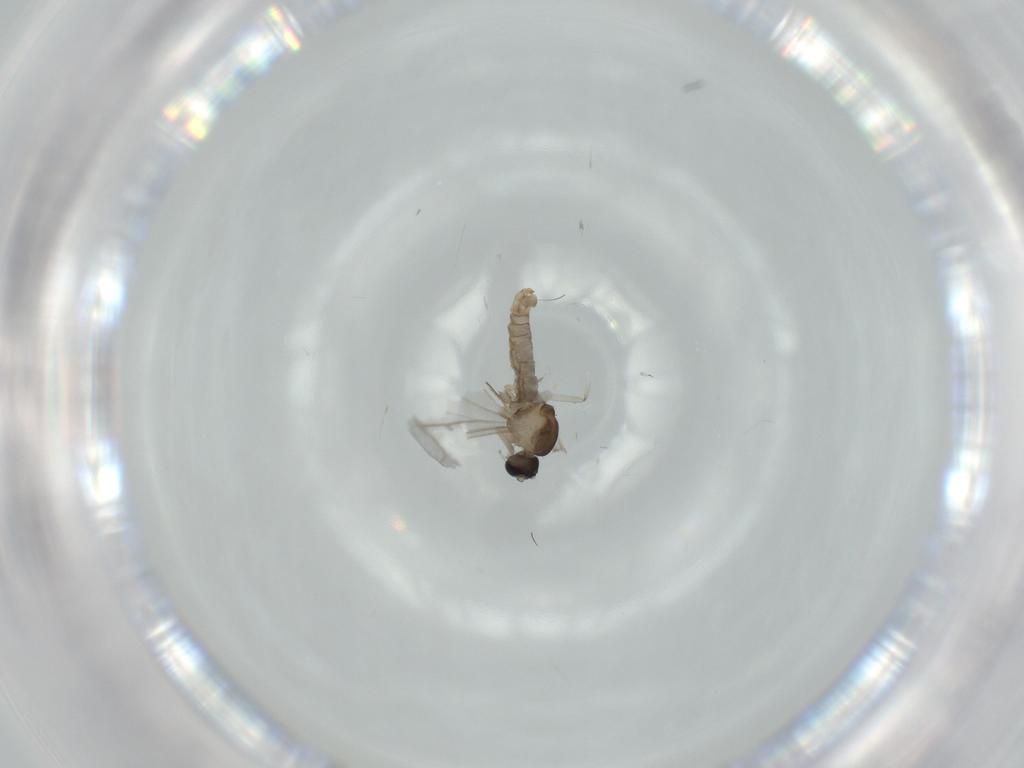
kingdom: Animalia
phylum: Arthropoda
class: Insecta
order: Diptera
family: Cecidomyiidae
